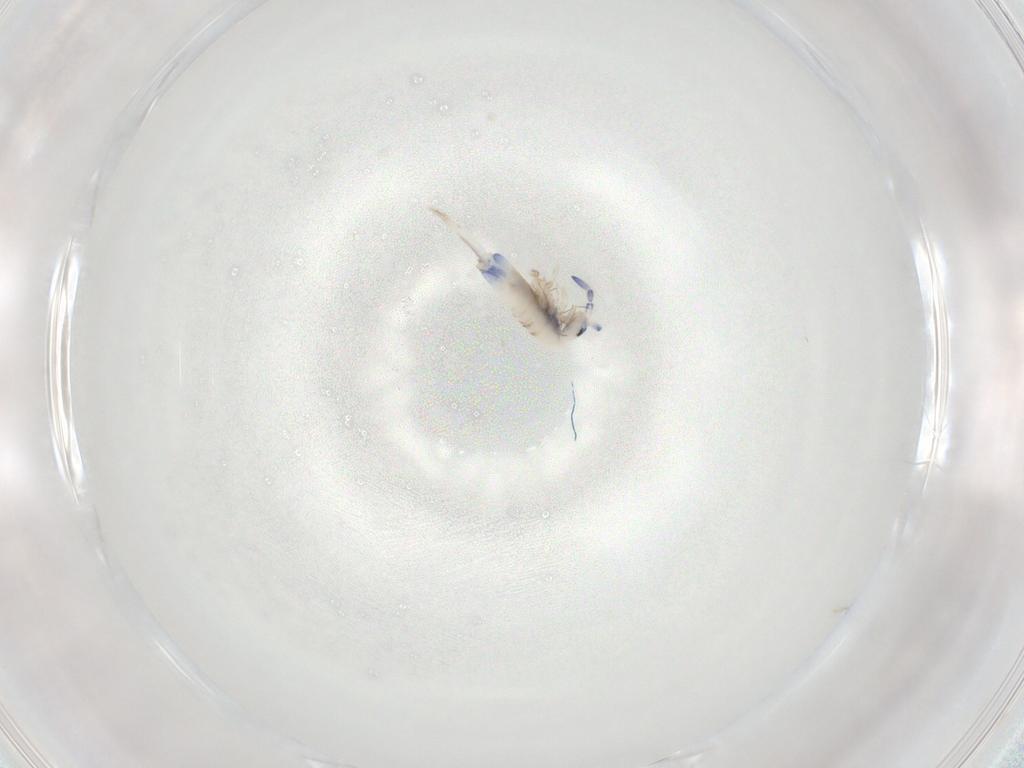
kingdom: Animalia
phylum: Arthropoda
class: Collembola
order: Entomobryomorpha
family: Entomobryidae
